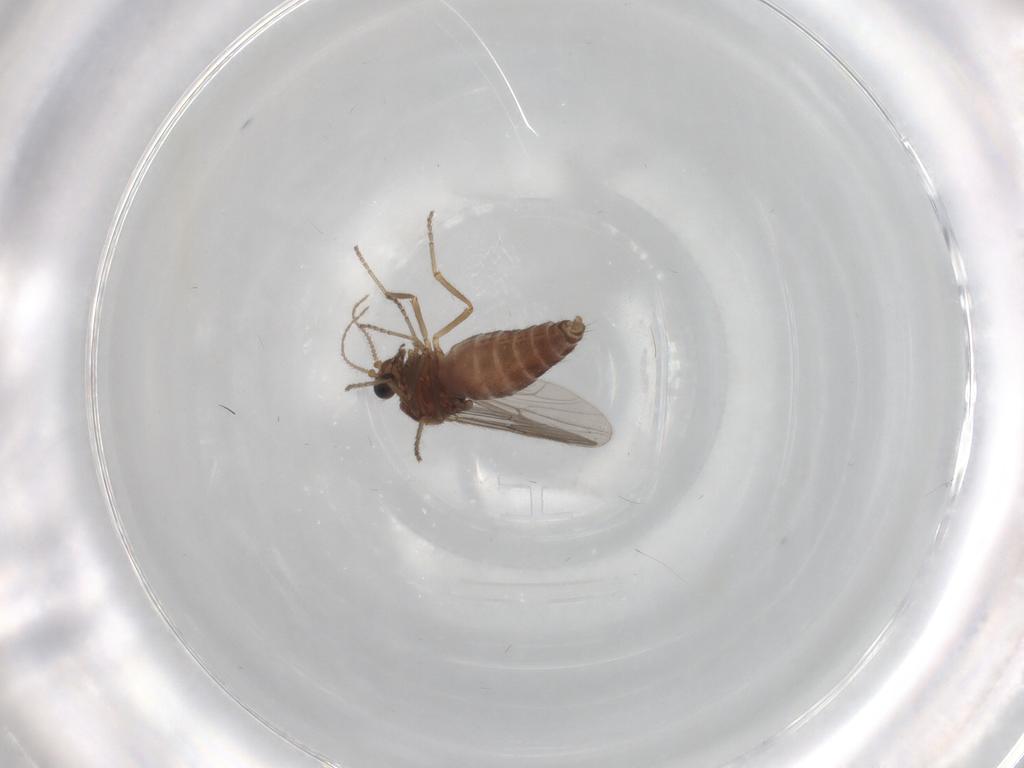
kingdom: Animalia
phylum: Arthropoda
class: Insecta
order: Diptera
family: Ceratopogonidae
